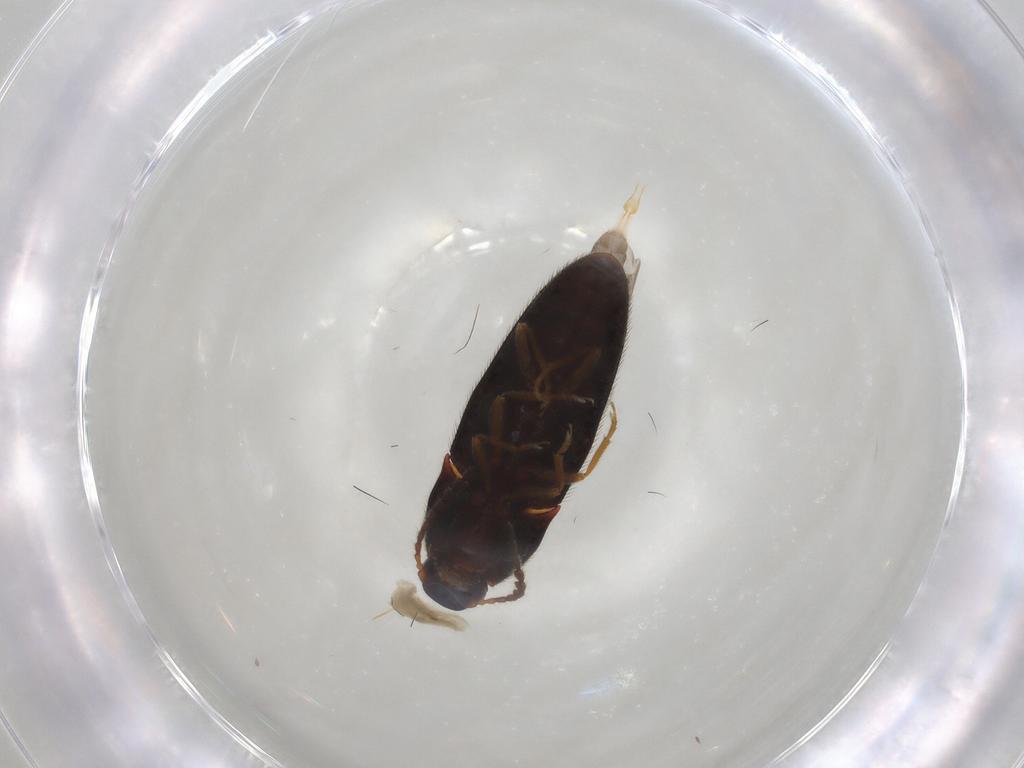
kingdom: Animalia
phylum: Arthropoda
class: Insecta
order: Coleoptera
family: Elateridae
